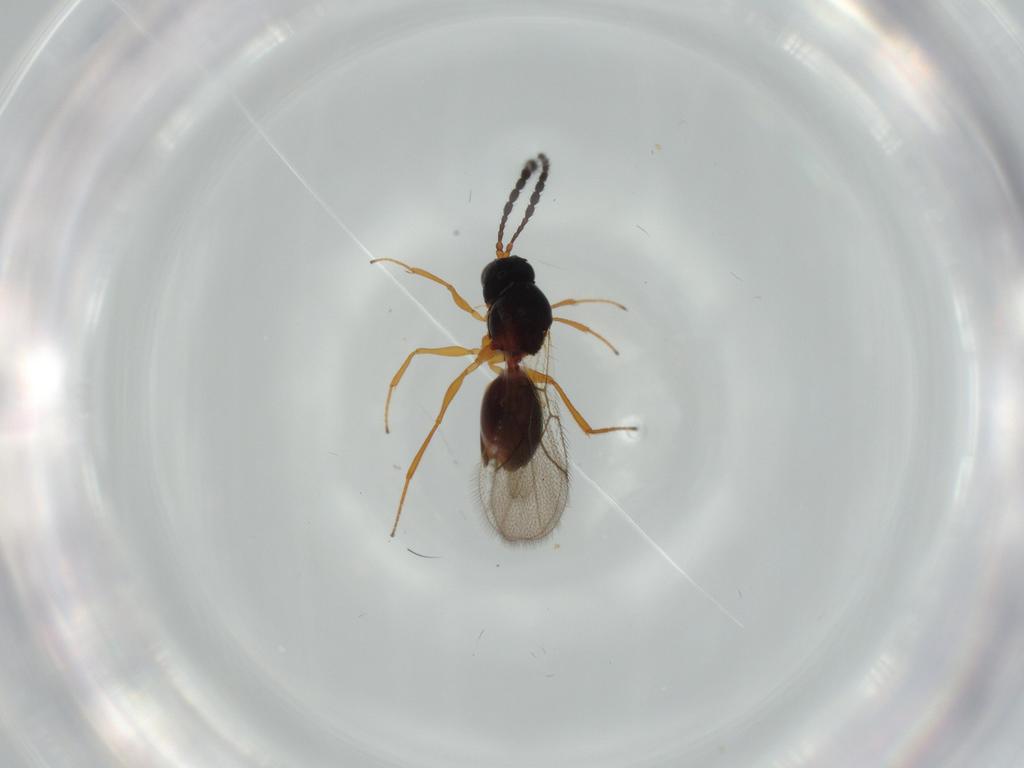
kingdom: Animalia
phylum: Arthropoda
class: Insecta
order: Hymenoptera
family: Figitidae
